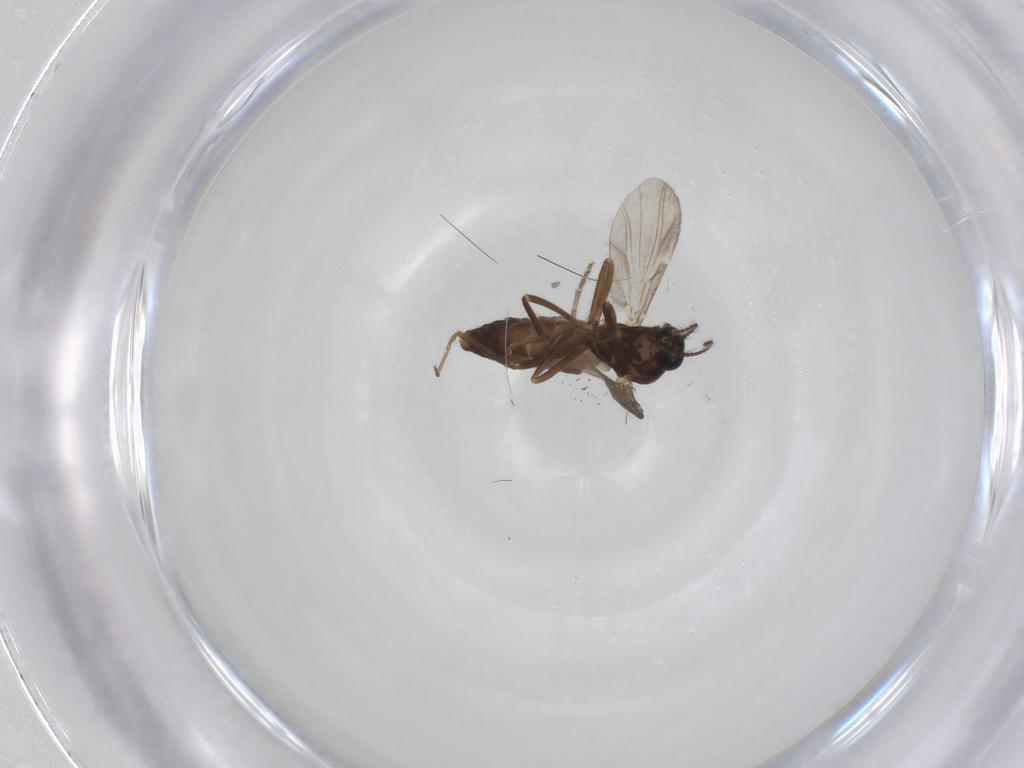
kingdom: Animalia
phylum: Arthropoda
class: Insecta
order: Diptera
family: Ceratopogonidae
